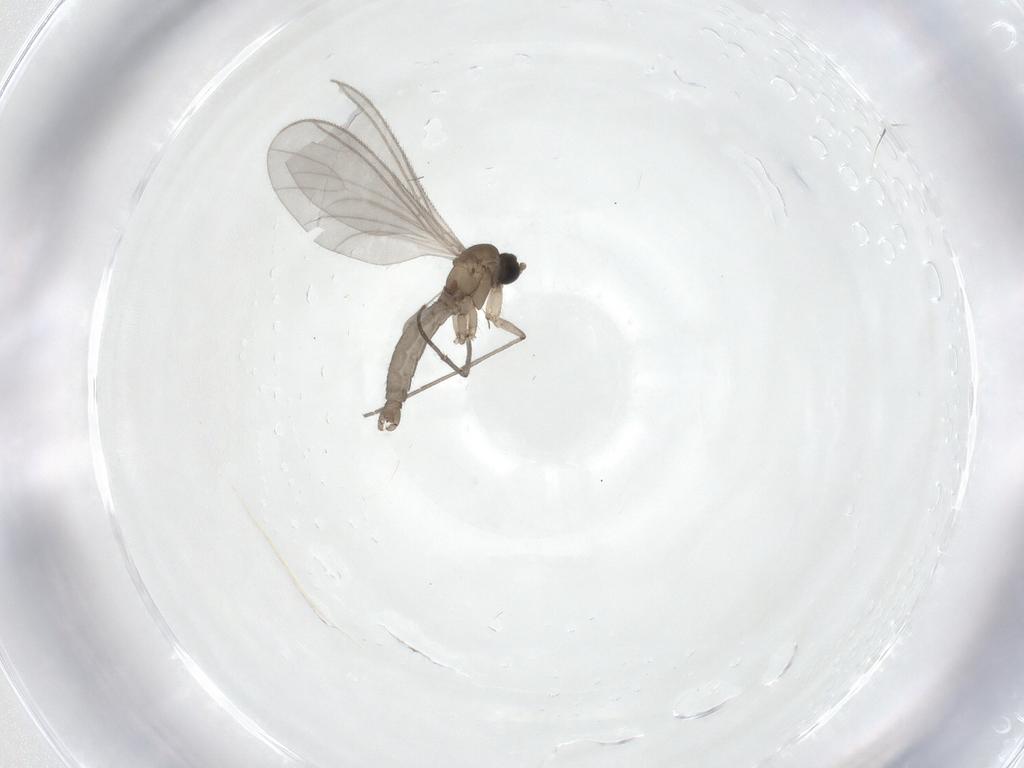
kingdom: Animalia
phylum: Arthropoda
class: Insecta
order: Diptera
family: Sciaridae
